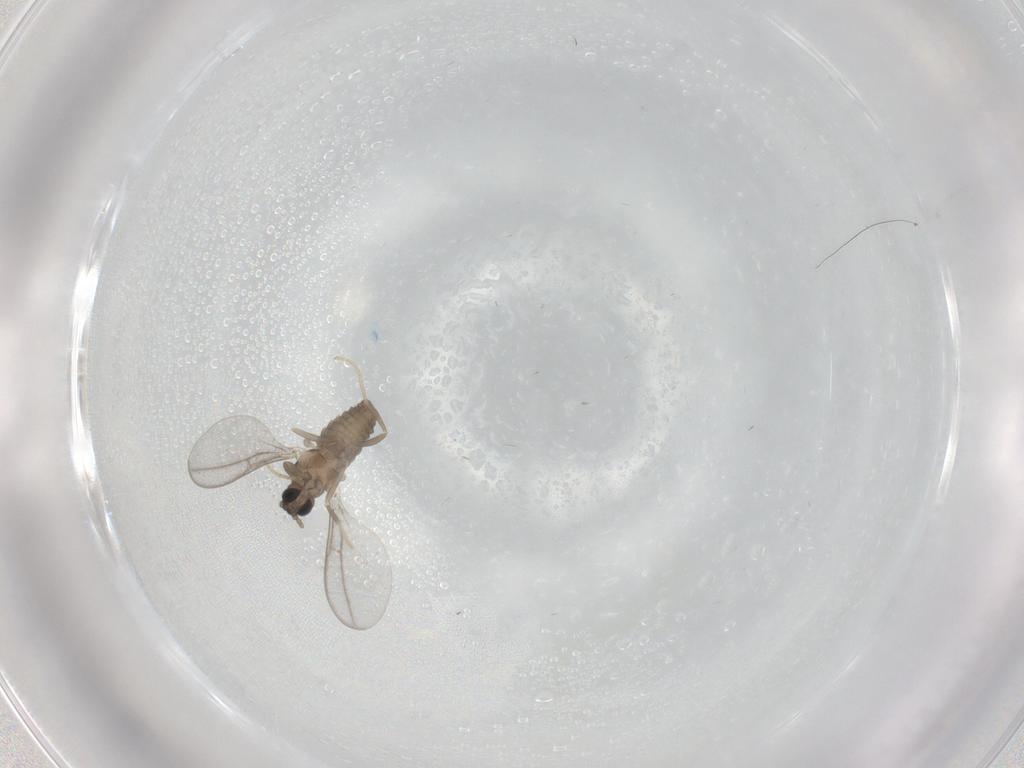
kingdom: Animalia
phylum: Arthropoda
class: Insecta
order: Diptera
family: Cecidomyiidae
